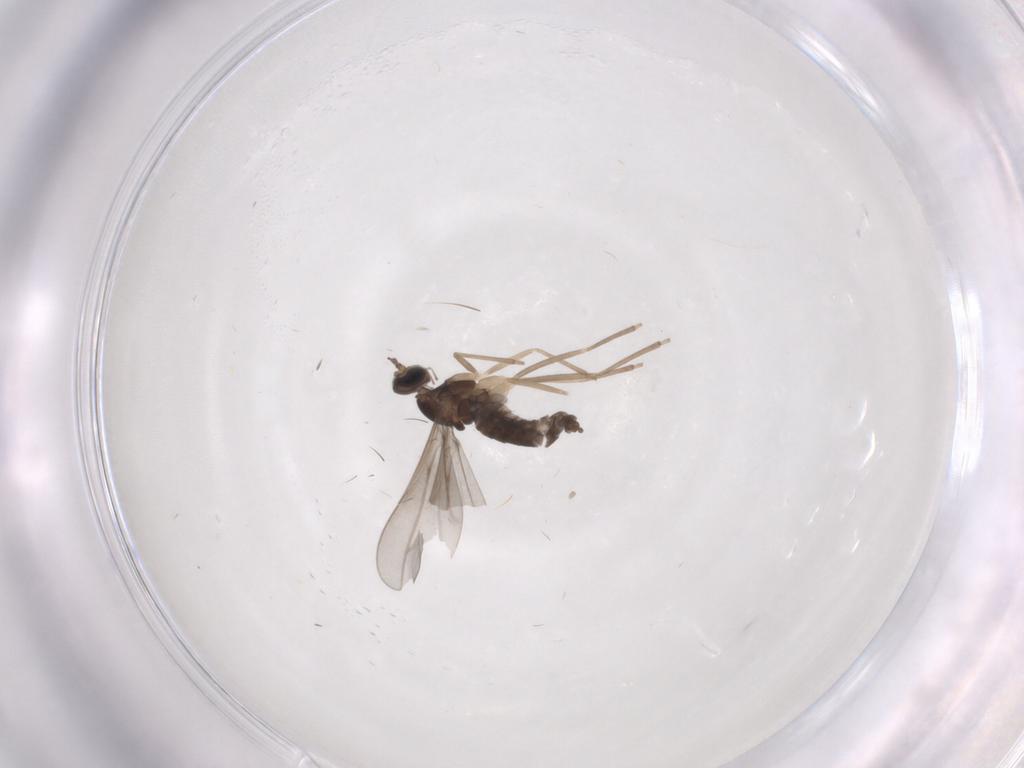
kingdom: Animalia
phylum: Arthropoda
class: Insecta
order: Diptera
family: Cecidomyiidae
